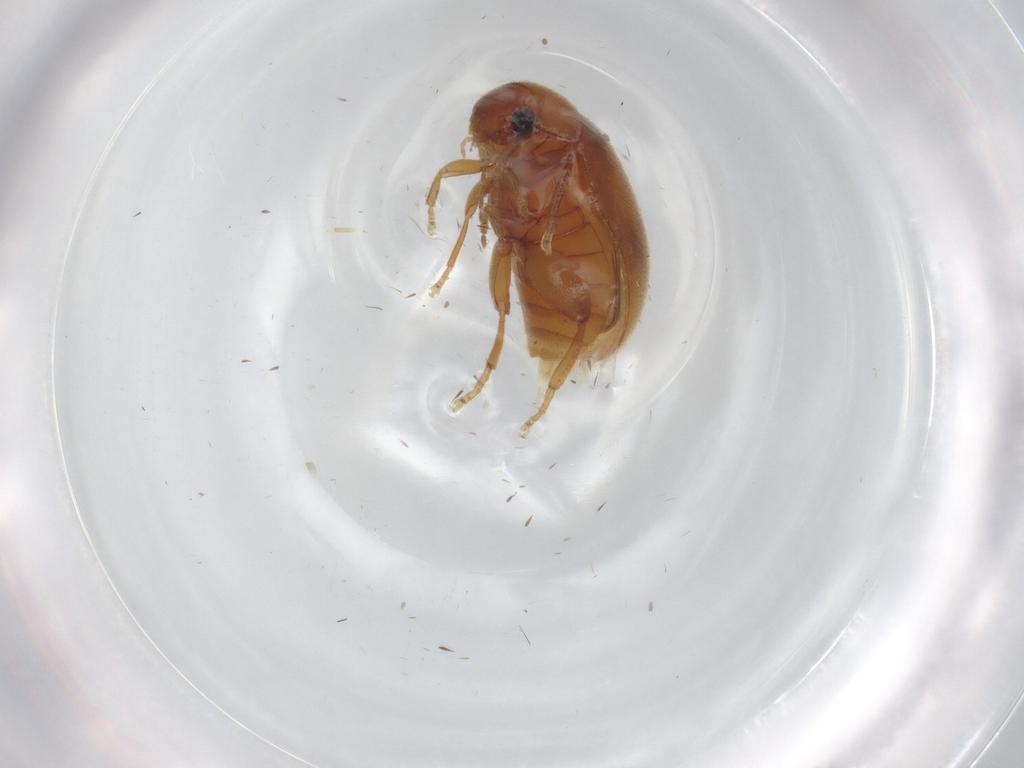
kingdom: Animalia
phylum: Arthropoda
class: Insecta
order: Coleoptera
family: Scirtidae
